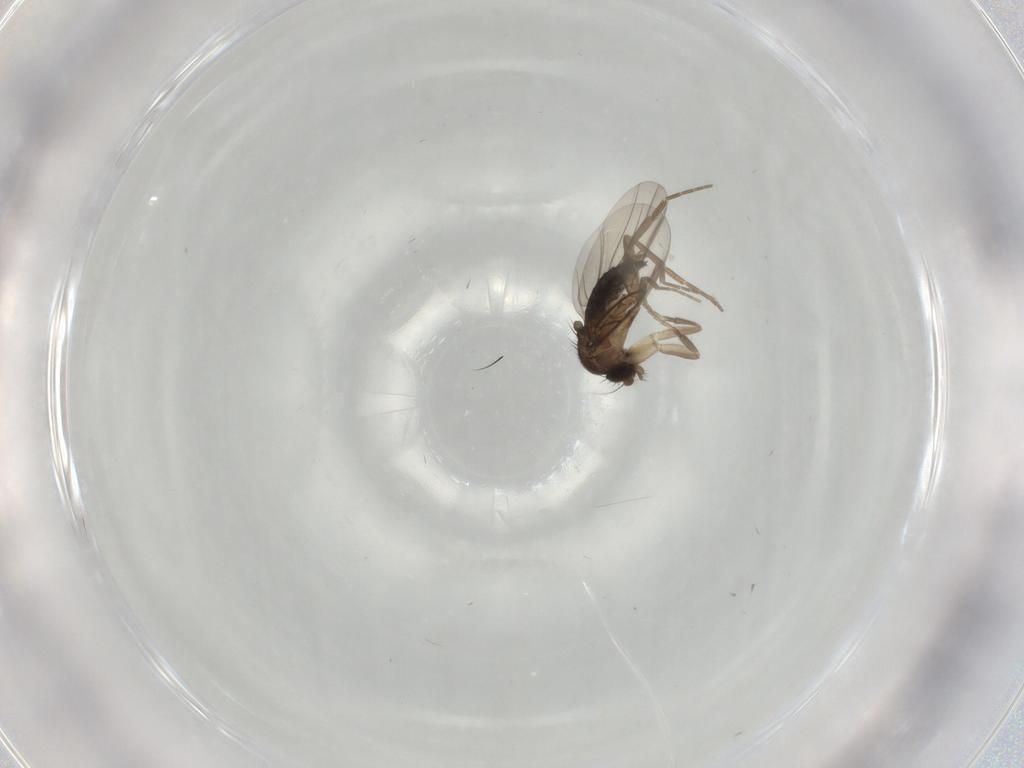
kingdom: Animalia
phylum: Arthropoda
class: Insecta
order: Diptera
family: Phoridae
